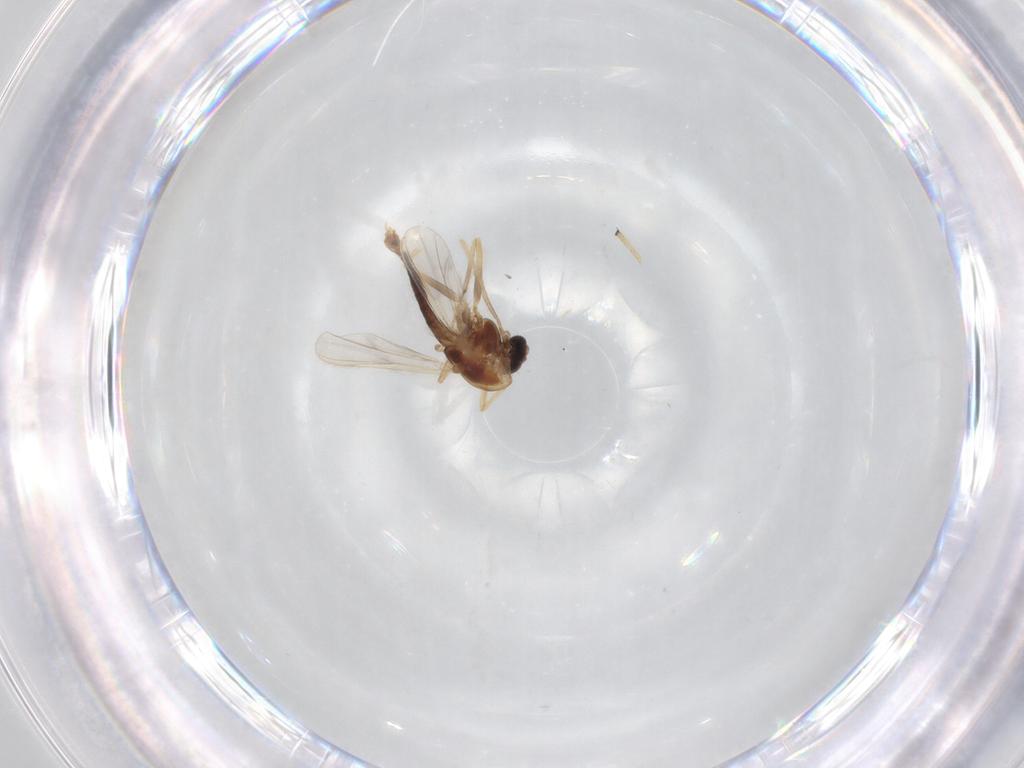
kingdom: Animalia
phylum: Arthropoda
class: Insecta
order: Diptera
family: Chironomidae
